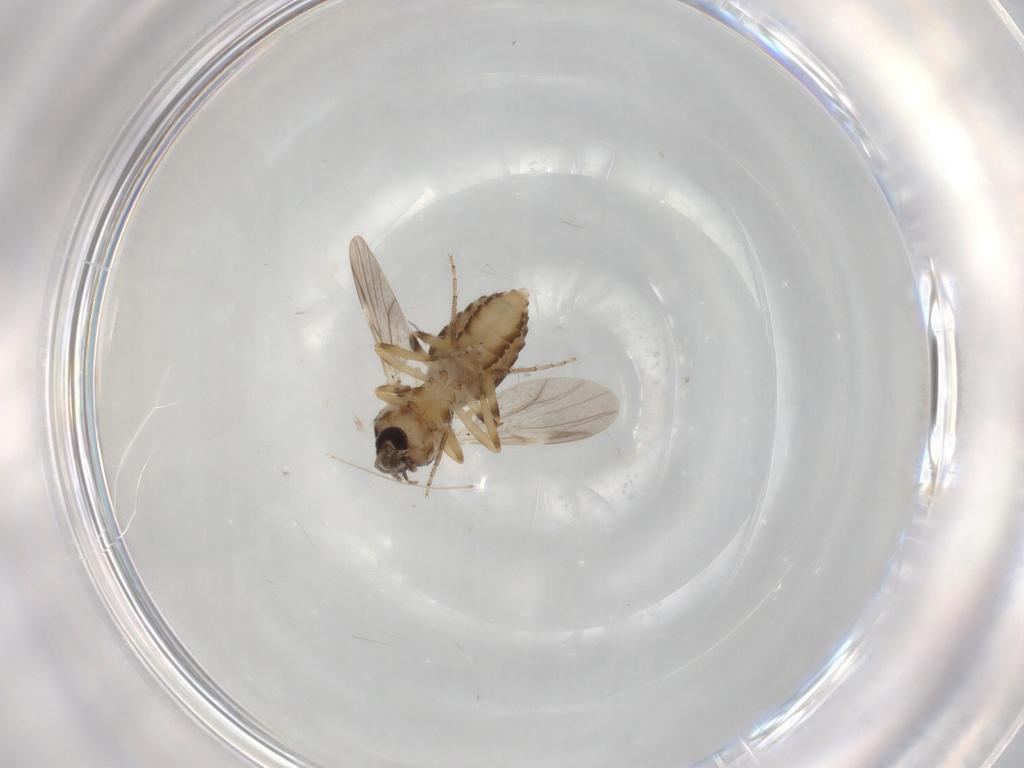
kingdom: Animalia
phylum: Arthropoda
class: Insecta
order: Diptera
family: Ceratopogonidae
